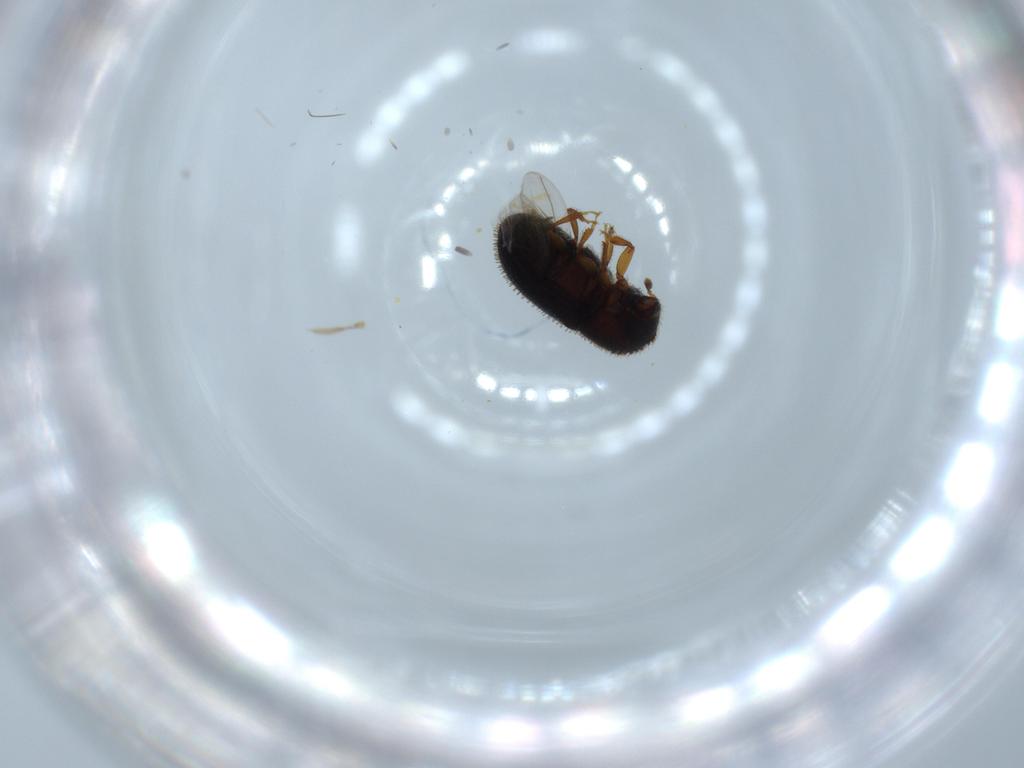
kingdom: Animalia
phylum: Arthropoda
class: Insecta
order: Coleoptera
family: Curculionidae
